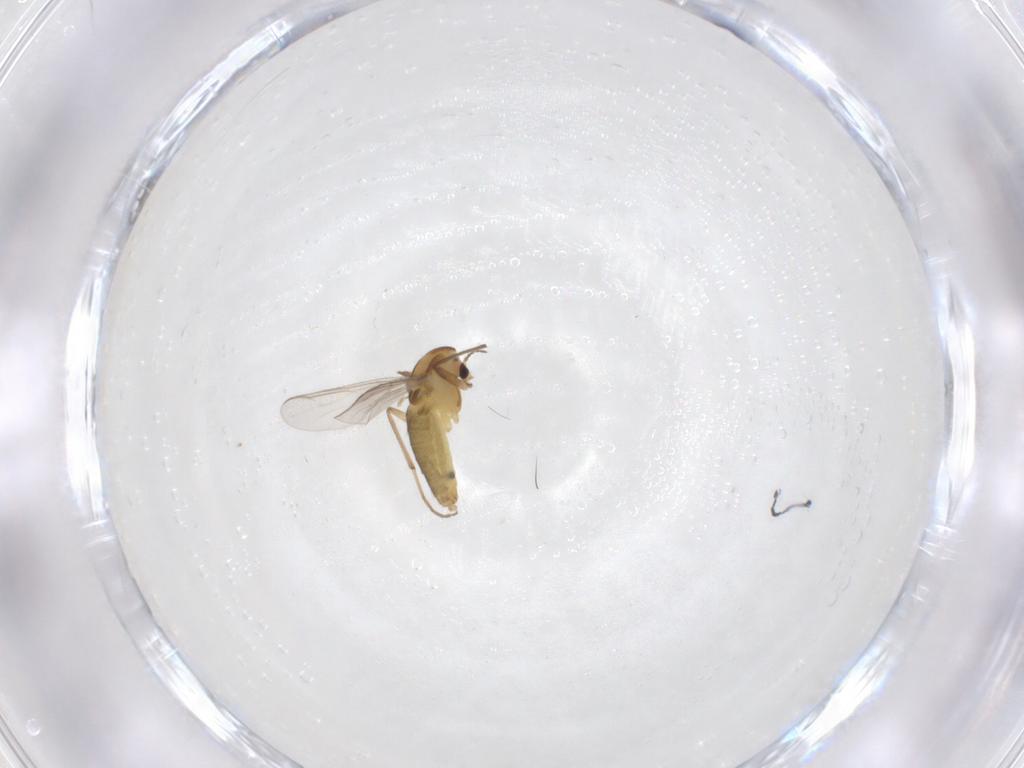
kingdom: Animalia
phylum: Arthropoda
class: Insecta
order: Diptera
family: Chironomidae
